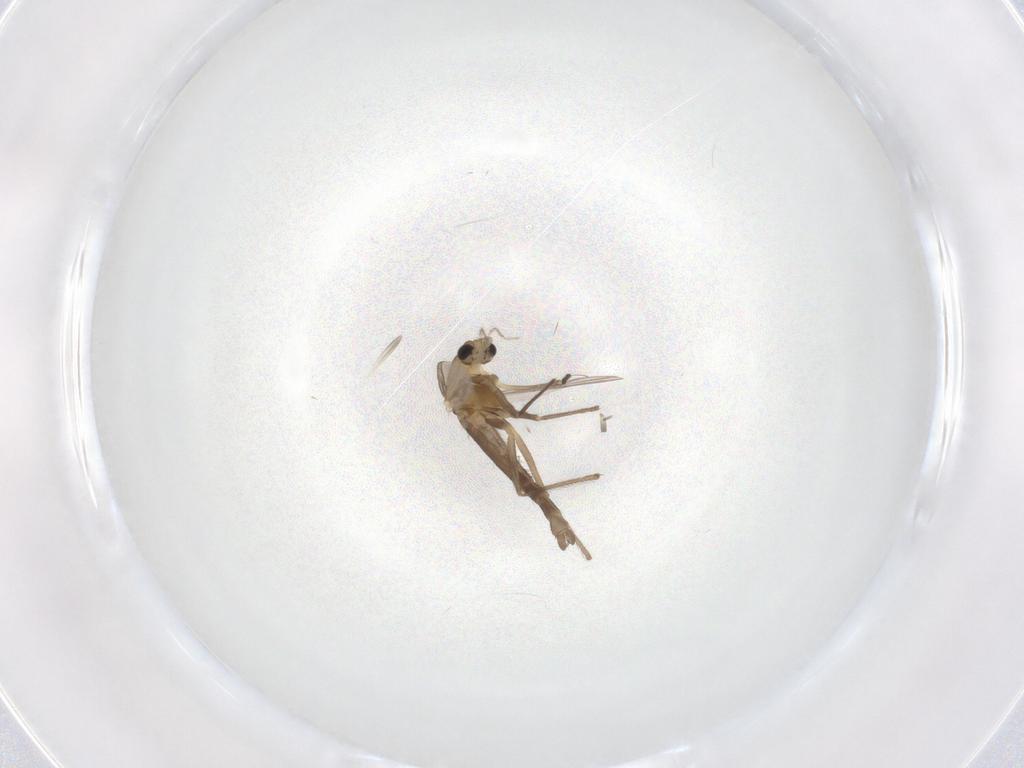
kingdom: Animalia
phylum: Arthropoda
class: Insecta
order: Diptera
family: Chironomidae
